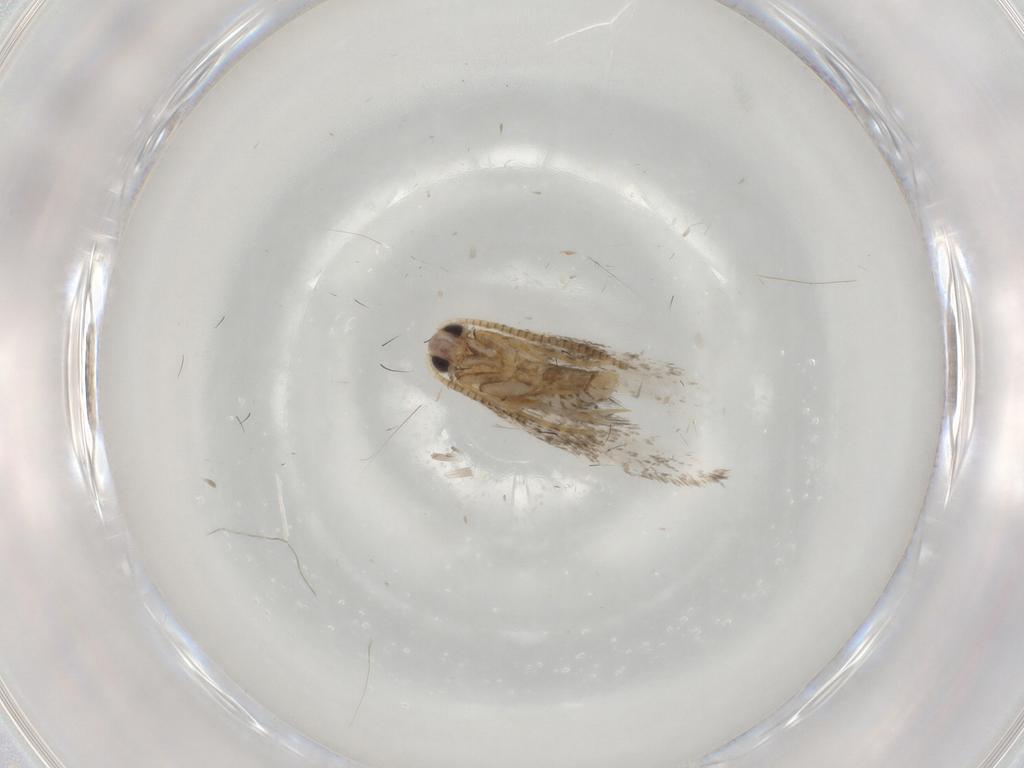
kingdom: Animalia
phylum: Arthropoda
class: Insecta
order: Lepidoptera
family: Tineidae
